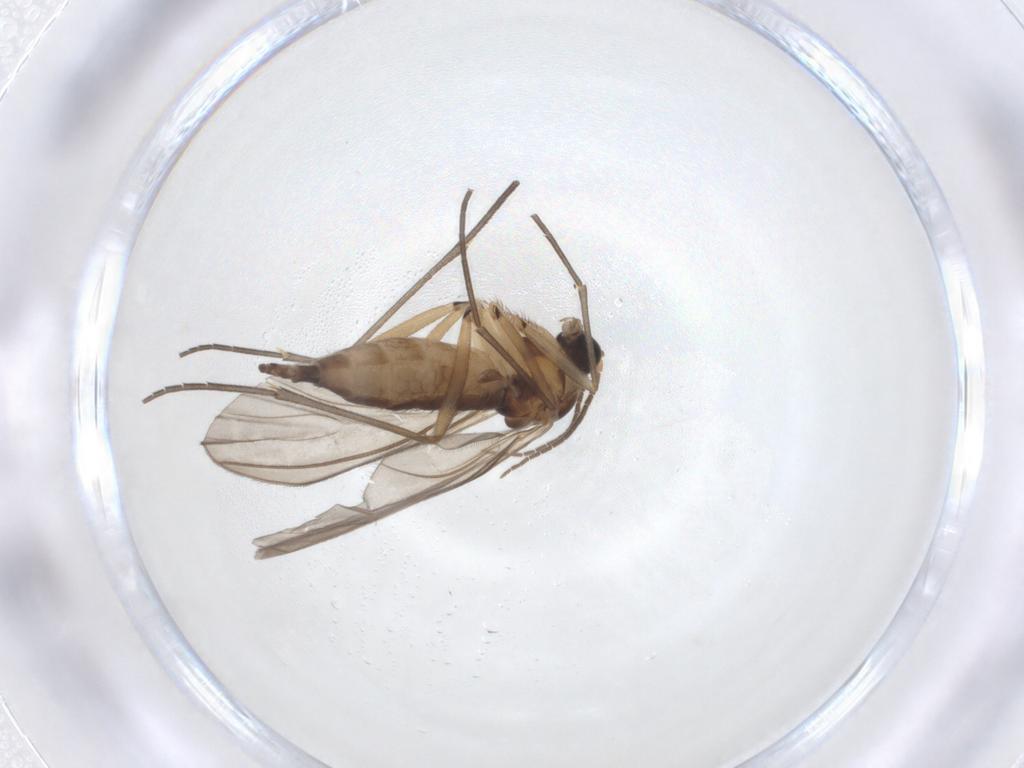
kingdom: Animalia
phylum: Arthropoda
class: Insecta
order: Diptera
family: Sciaridae
